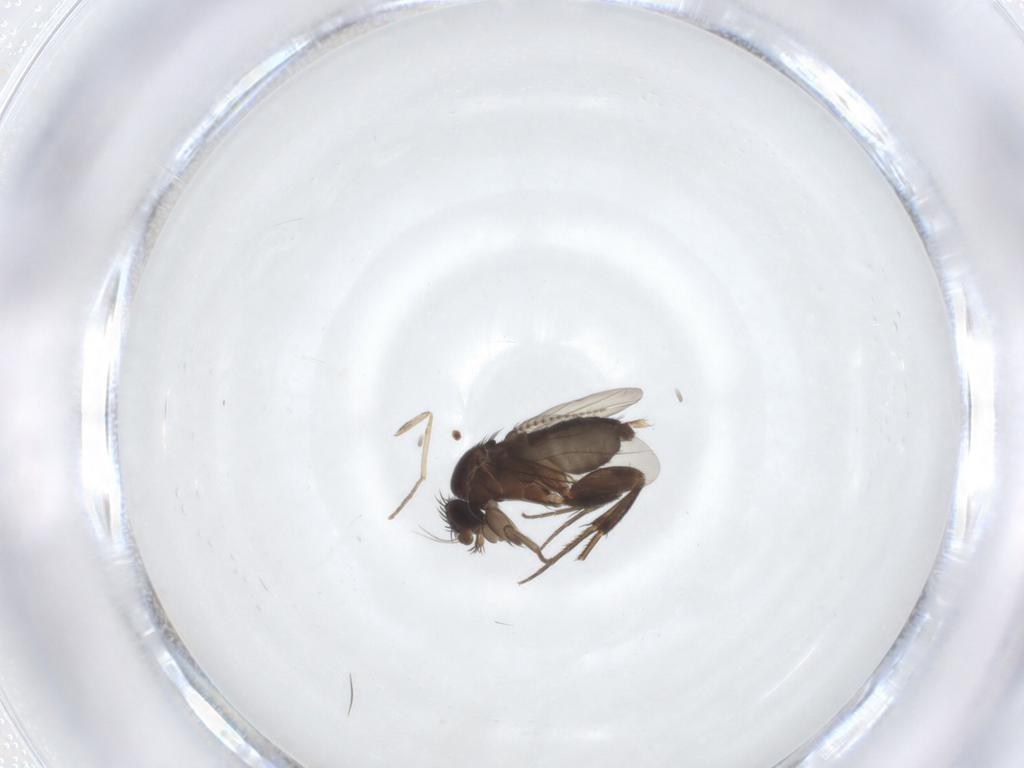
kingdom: Animalia
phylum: Arthropoda
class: Insecta
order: Diptera
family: Phoridae
